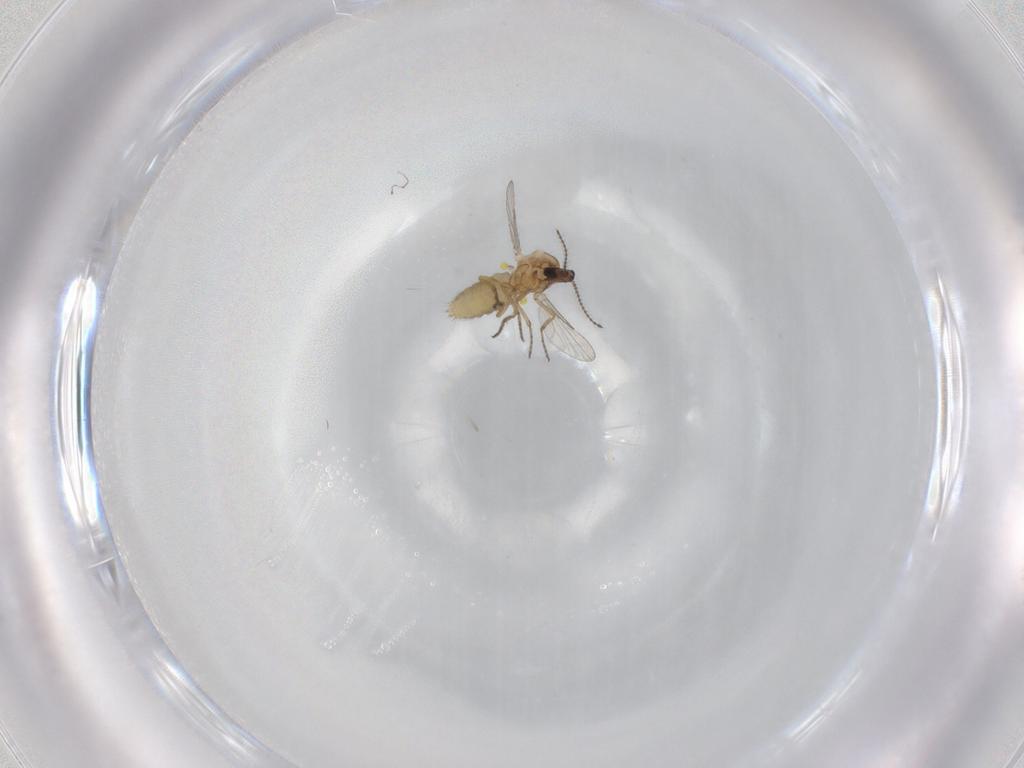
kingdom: Animalia
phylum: Arthropoda
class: Insecta
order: Diptera
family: Ceratopogonidae
